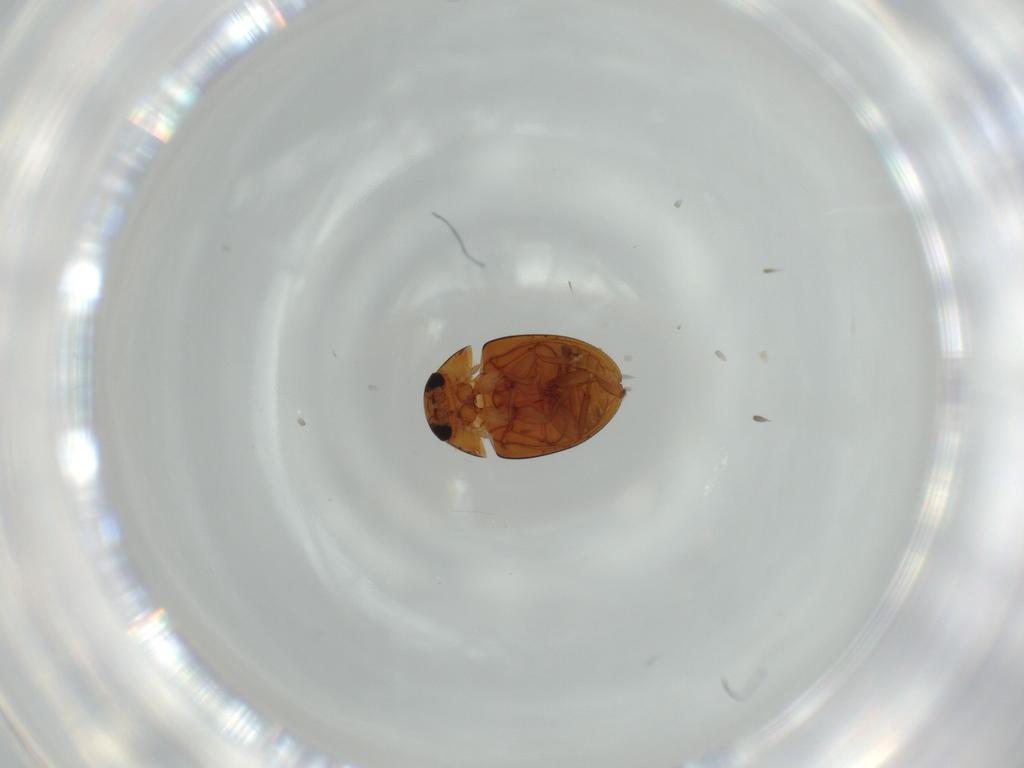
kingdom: Animalia
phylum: Arthropoda
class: Insecta
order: Coleoptera
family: Phalacridae
